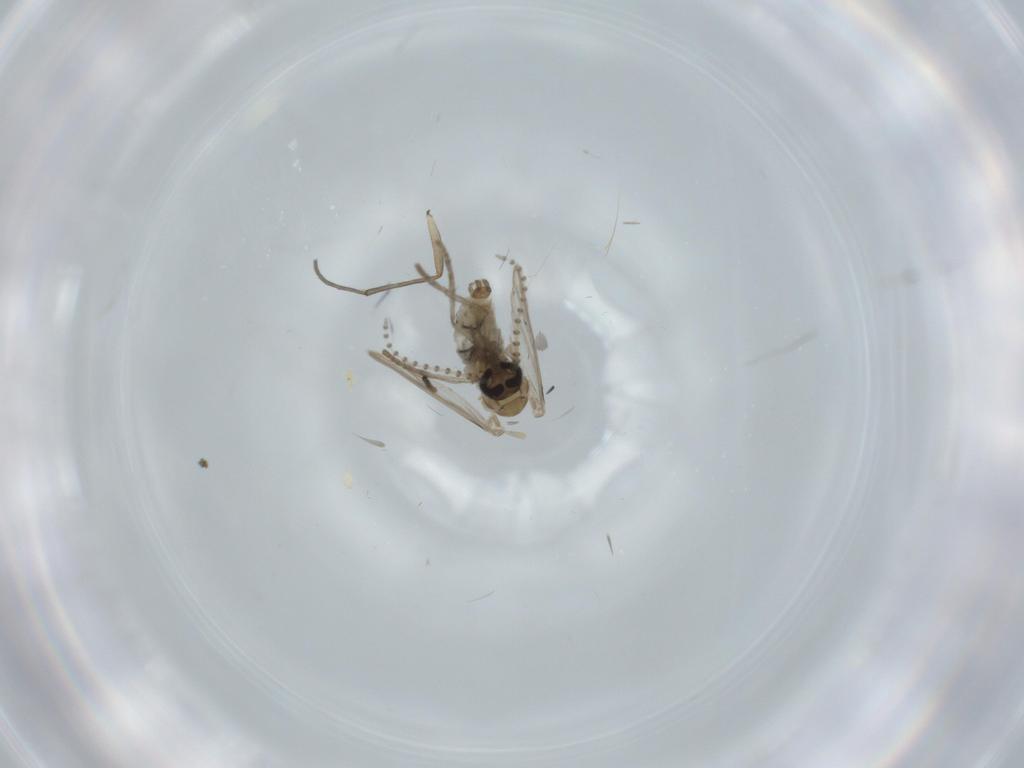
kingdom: Animalia
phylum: Arthropoda
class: Insecta
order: Diptera
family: Psychodidae
